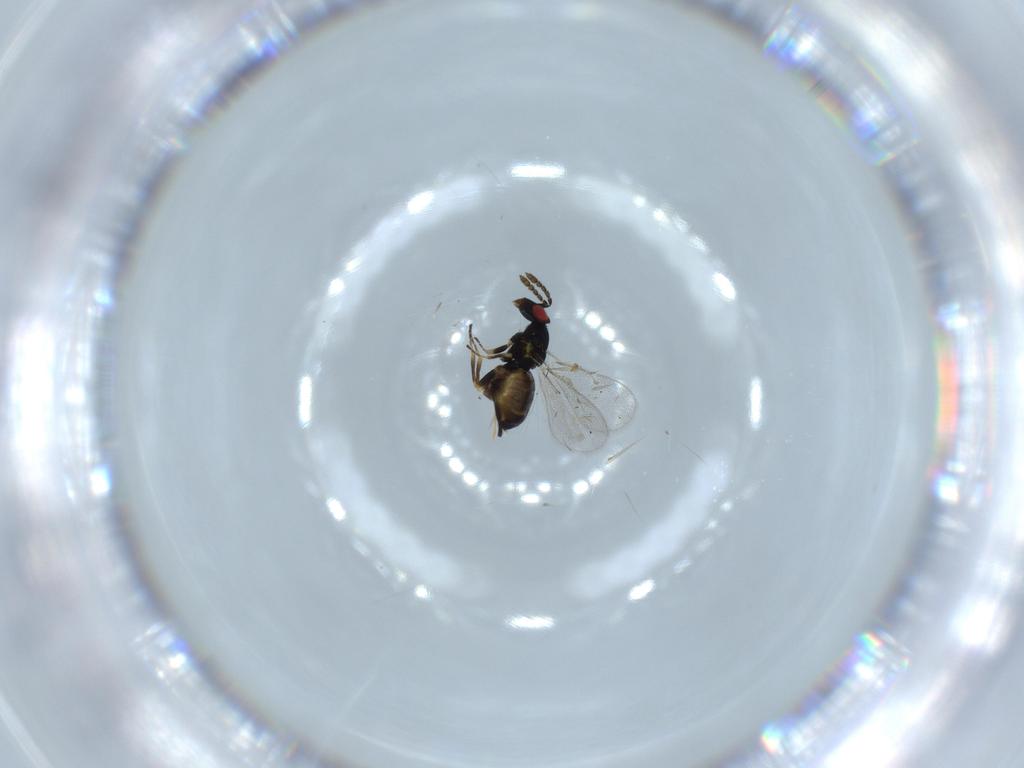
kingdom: Animalia
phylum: Arthropoda
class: Insecta
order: Hymenoptera
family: Eulophidae
